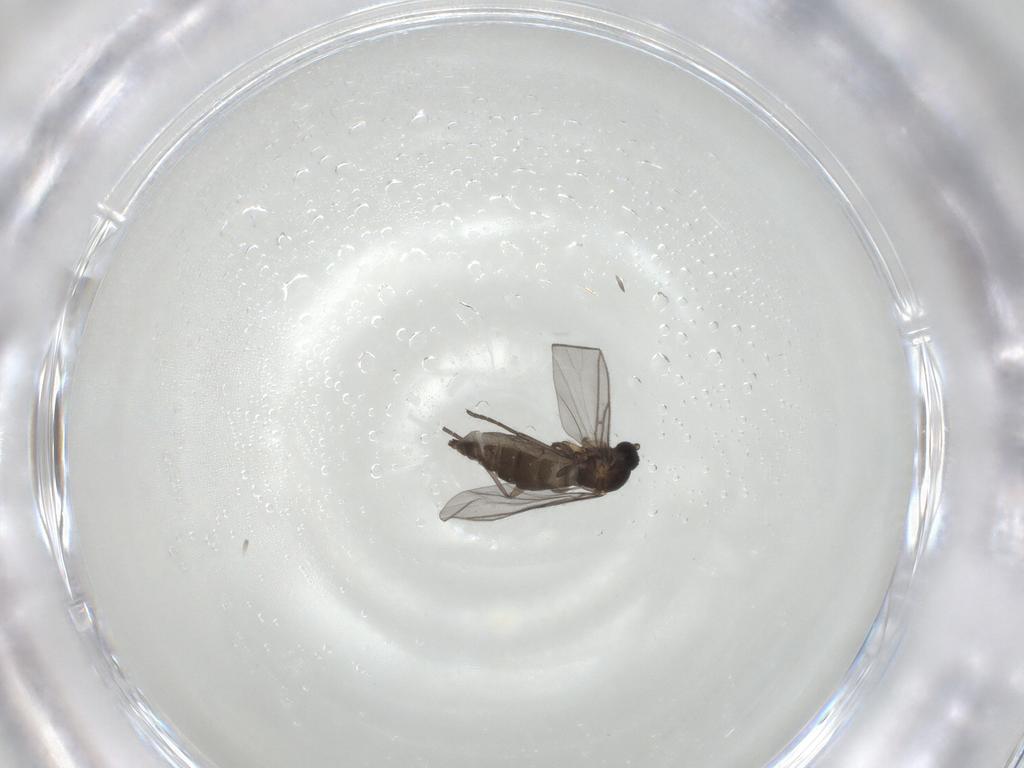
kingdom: Animalia
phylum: Arthropoda
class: Insecta
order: Diptera
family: Sciaridae
